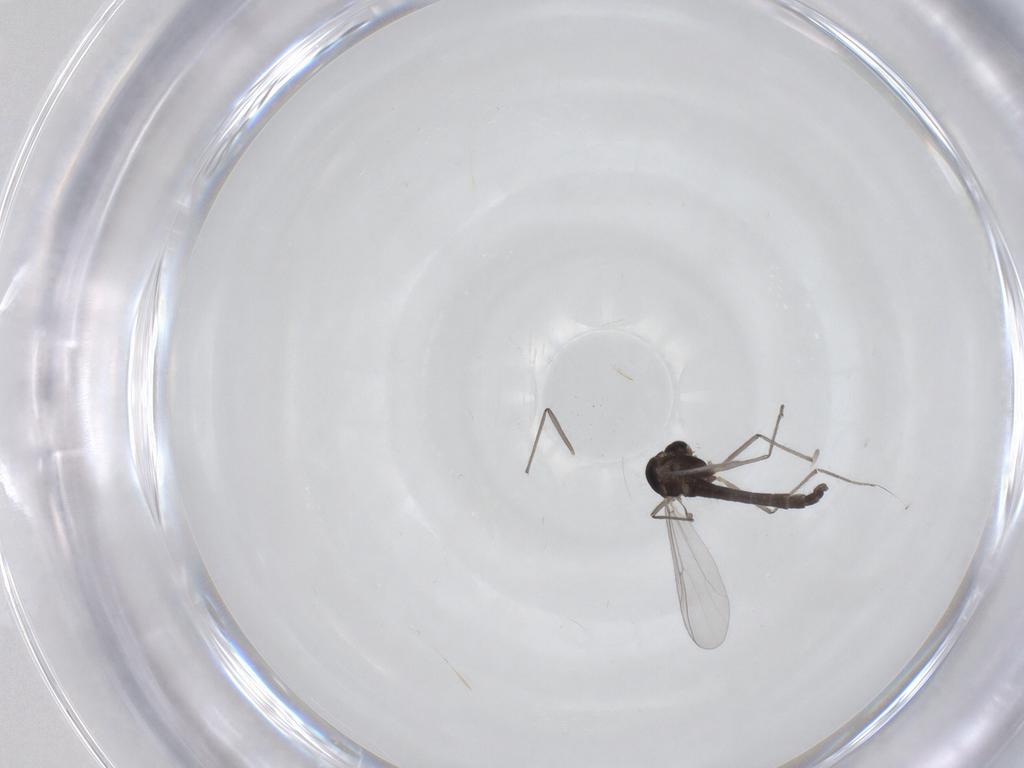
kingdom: Animalia
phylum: Arthropoda
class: Insecta
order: Diptera
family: Chironomidae
